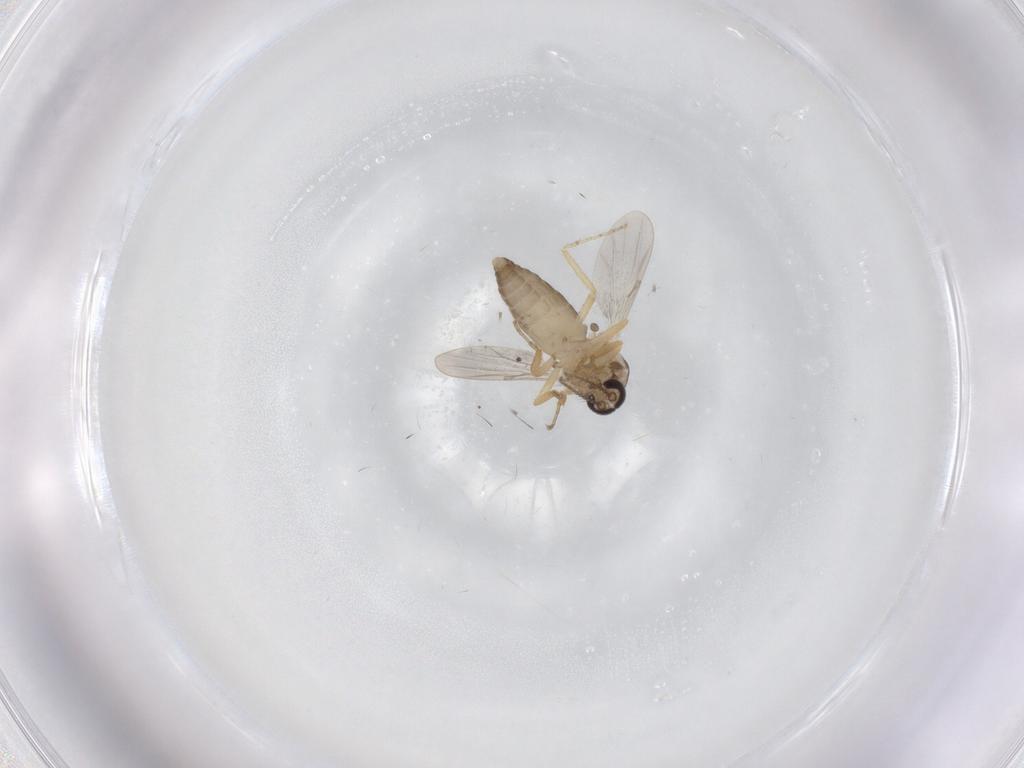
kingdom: Animalia
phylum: Arthropoda
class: Insecta
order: Diptera
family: Ceratopogonidae
